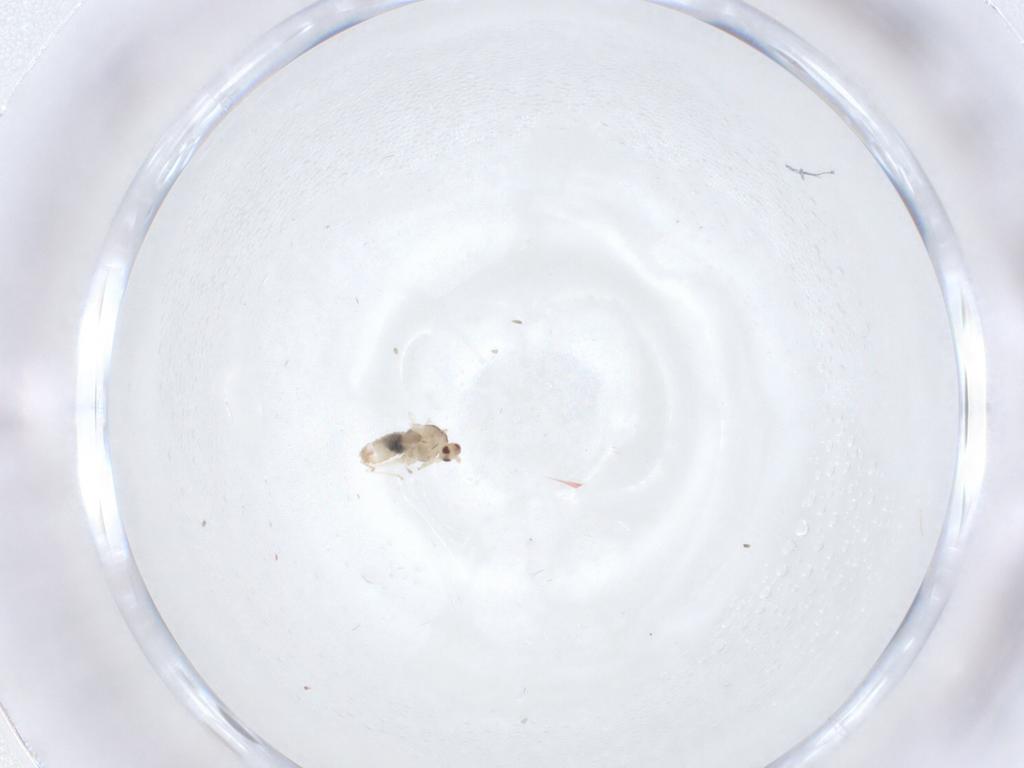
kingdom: Animalia
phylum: Arthropoda
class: Insecta
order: Diptera
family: Cecidomyiidae
